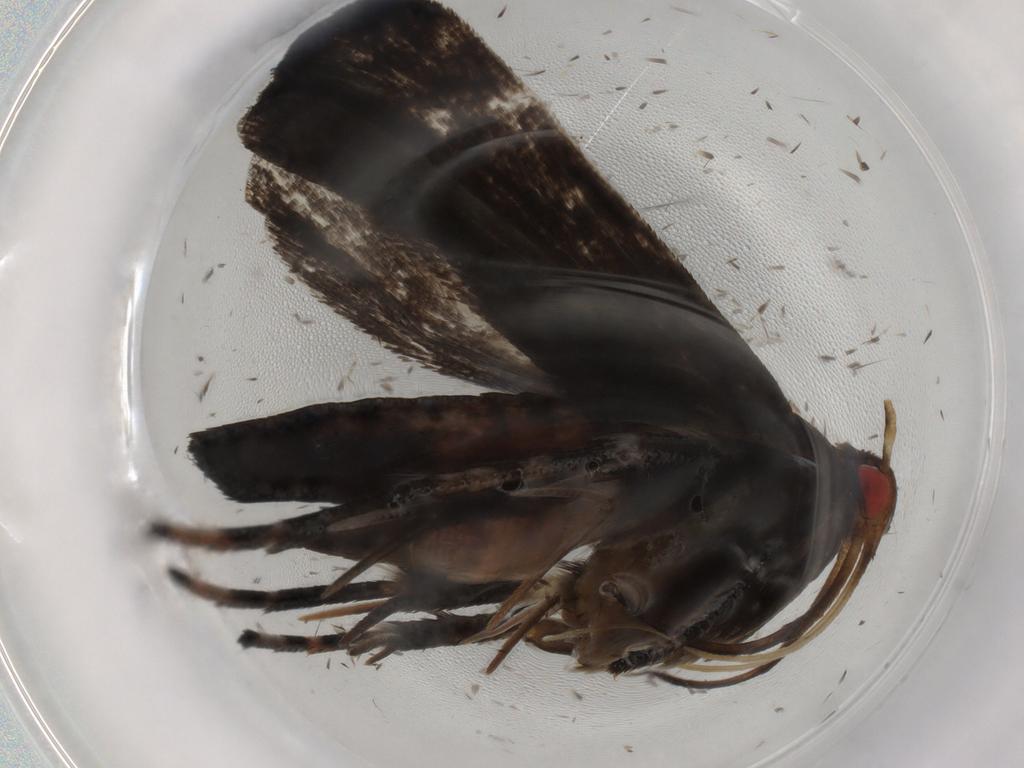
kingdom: Animalia
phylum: Arthropoda
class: Insecta
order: Lepidoptera
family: Gelechiidae
